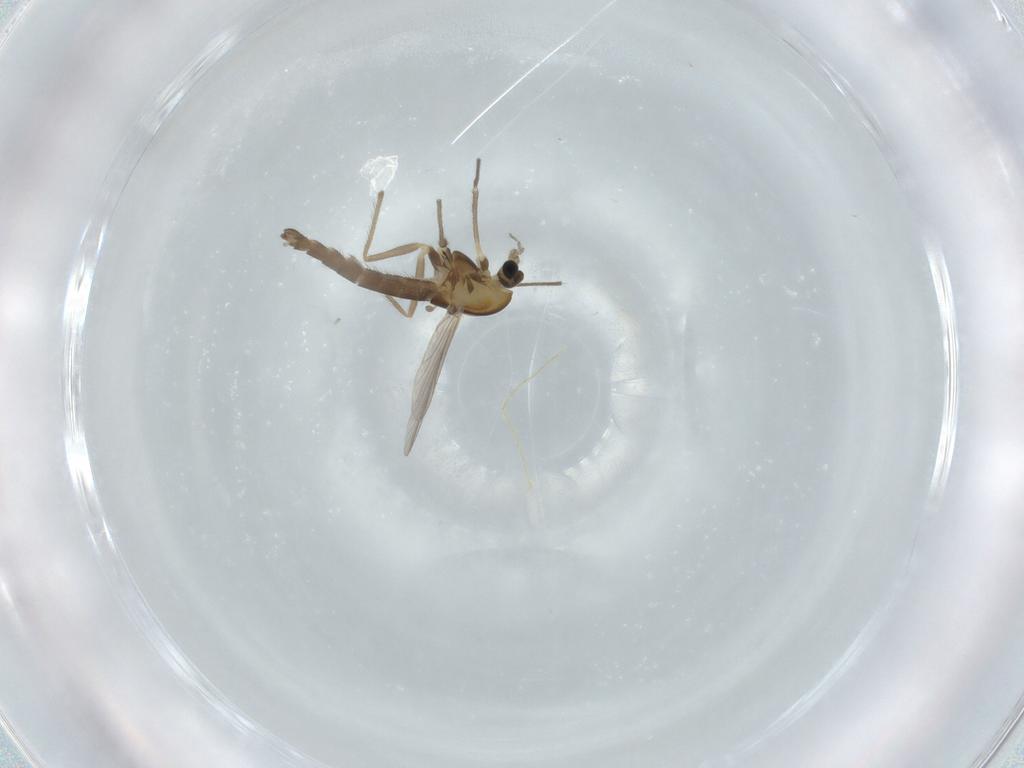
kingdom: Animalia
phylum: Arthropoda
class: Insecta
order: Diptera
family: Chironomidae
